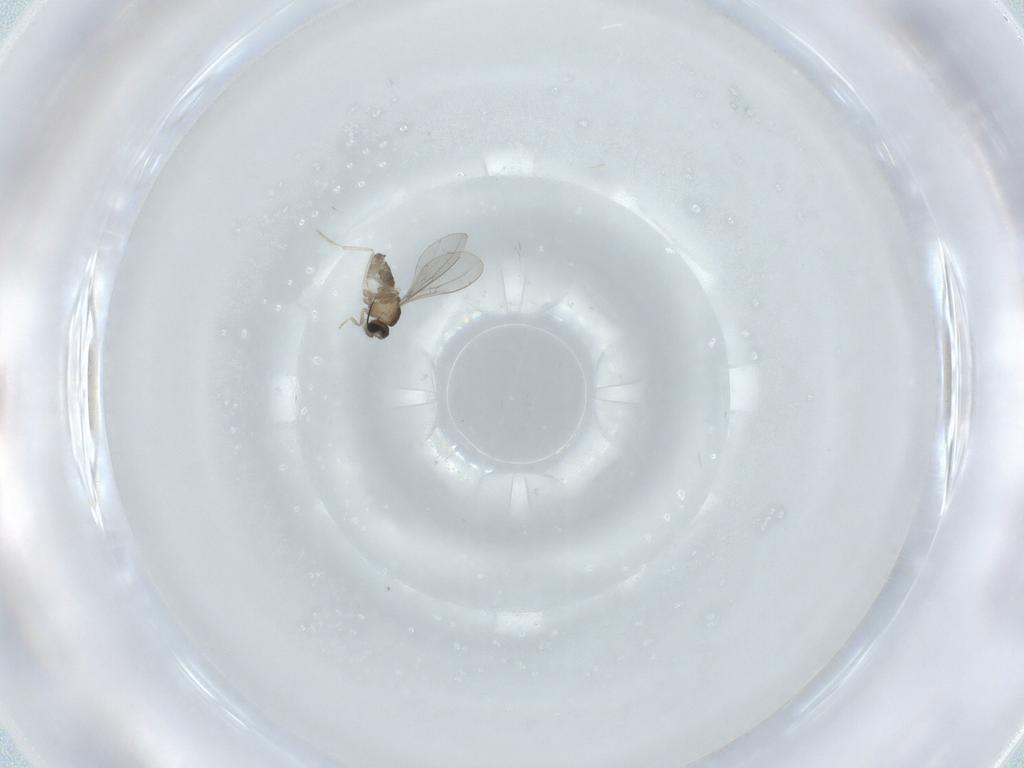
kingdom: Animalia
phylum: Arthropoda
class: Insecta
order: Diptera
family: Cecidomyiidae
